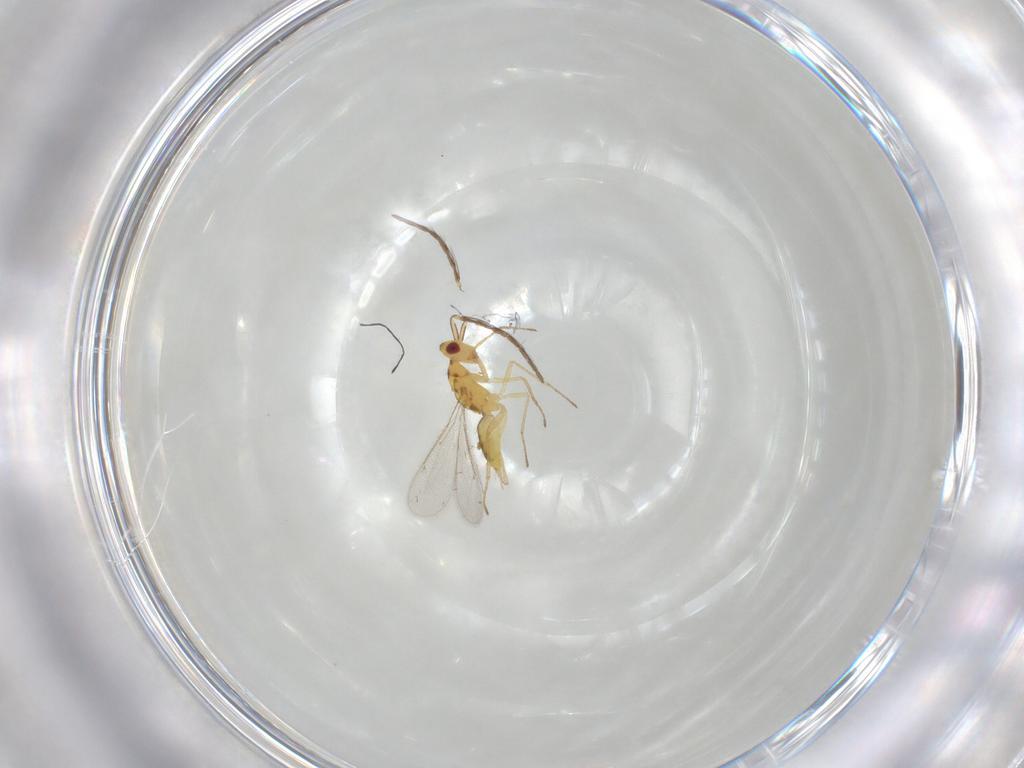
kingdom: Animalia
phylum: Arthropoda
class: Insecta
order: Hymenoptera
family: Eulophidae
